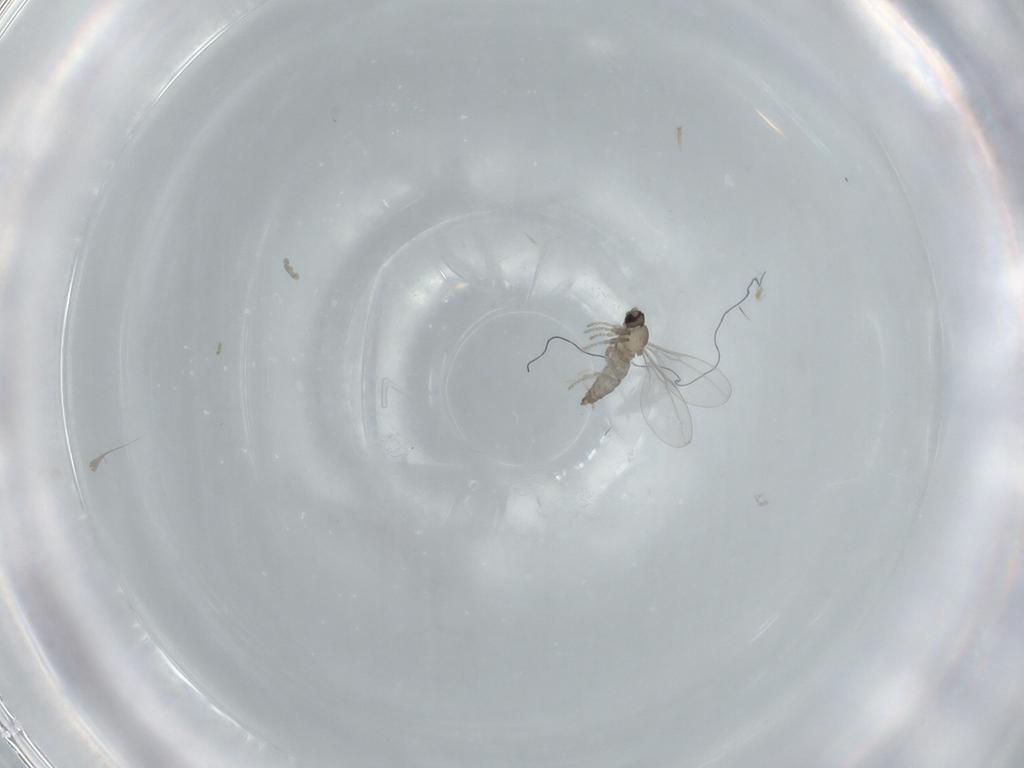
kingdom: Animalia
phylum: Arthropoda
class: Insecta
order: Diptera
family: Cecidomyiidae
